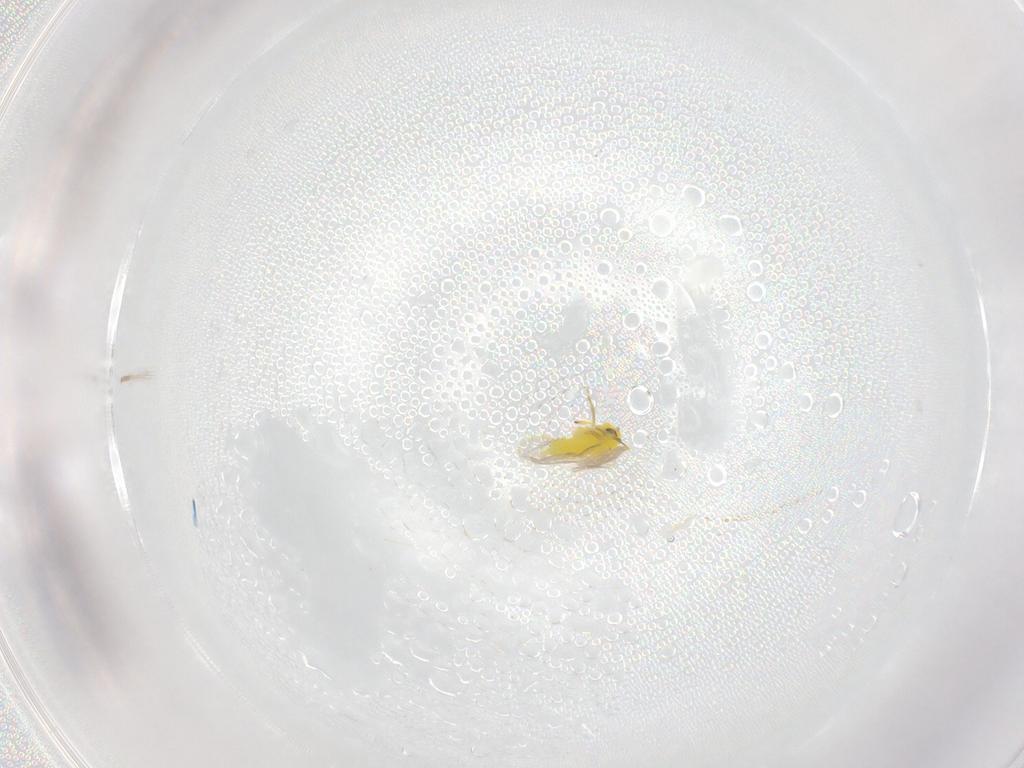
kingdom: Animalia
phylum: Arthropoda
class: Insecta
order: Hemiptera
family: Aleyrodidae
